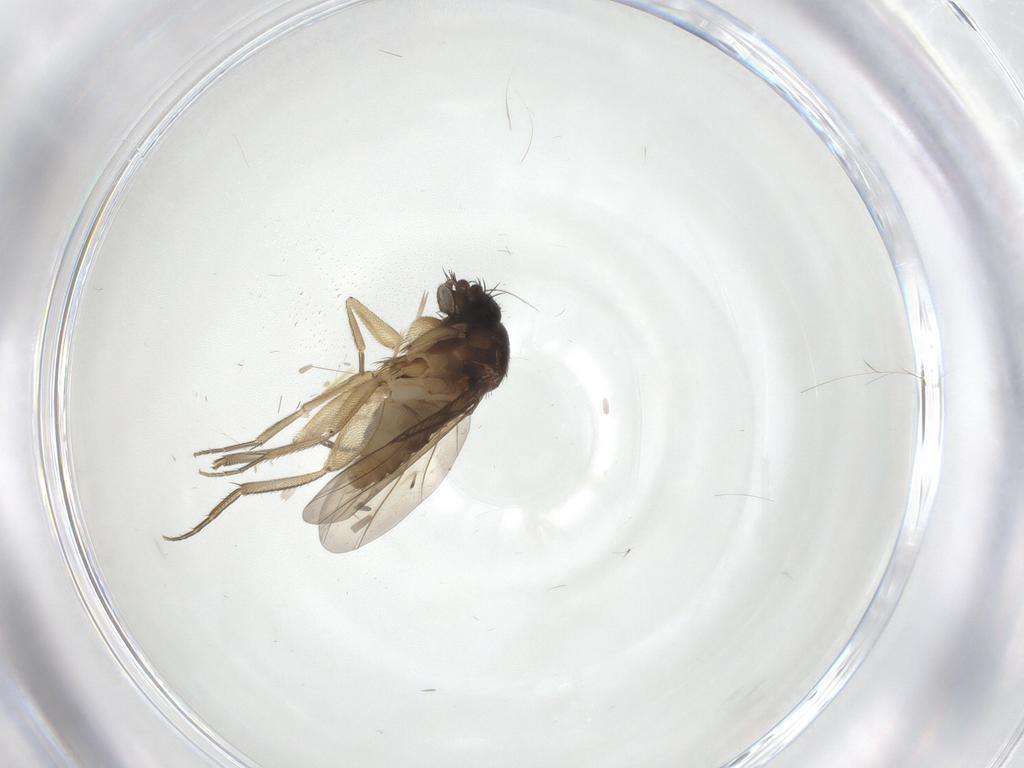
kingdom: Animalia
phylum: Arthropoda
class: Insecta
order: Diptera
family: Phoridae
